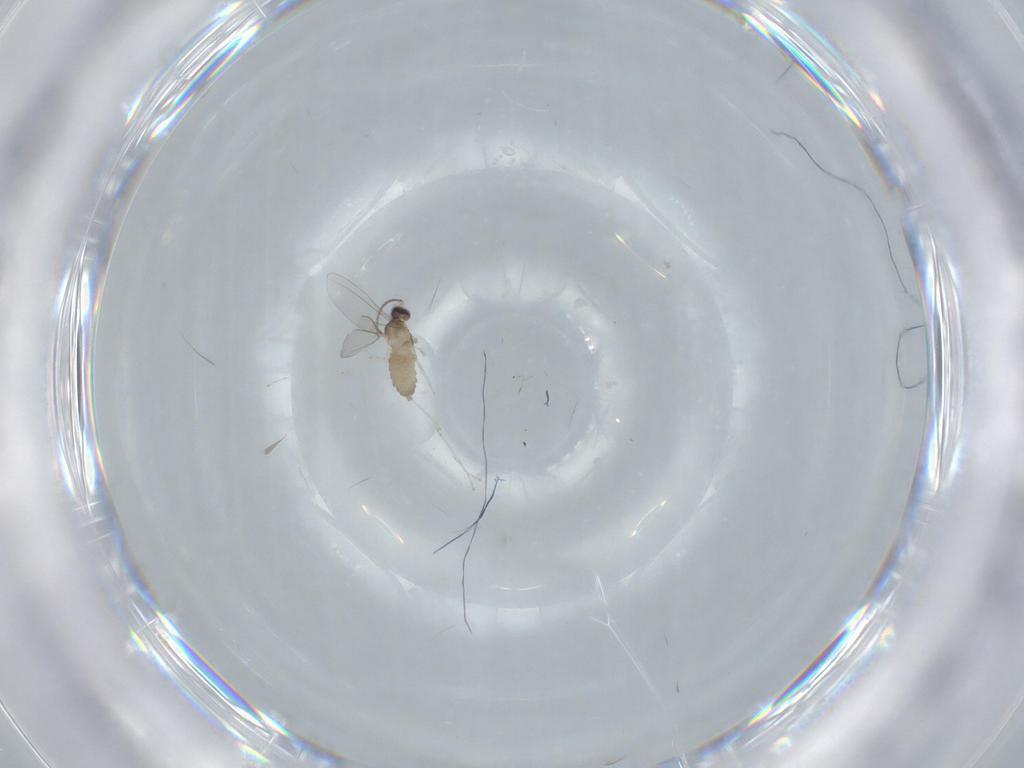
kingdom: Animalia
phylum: Arthropoda
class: Insecta
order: Diptera
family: Cecidomyiidae
